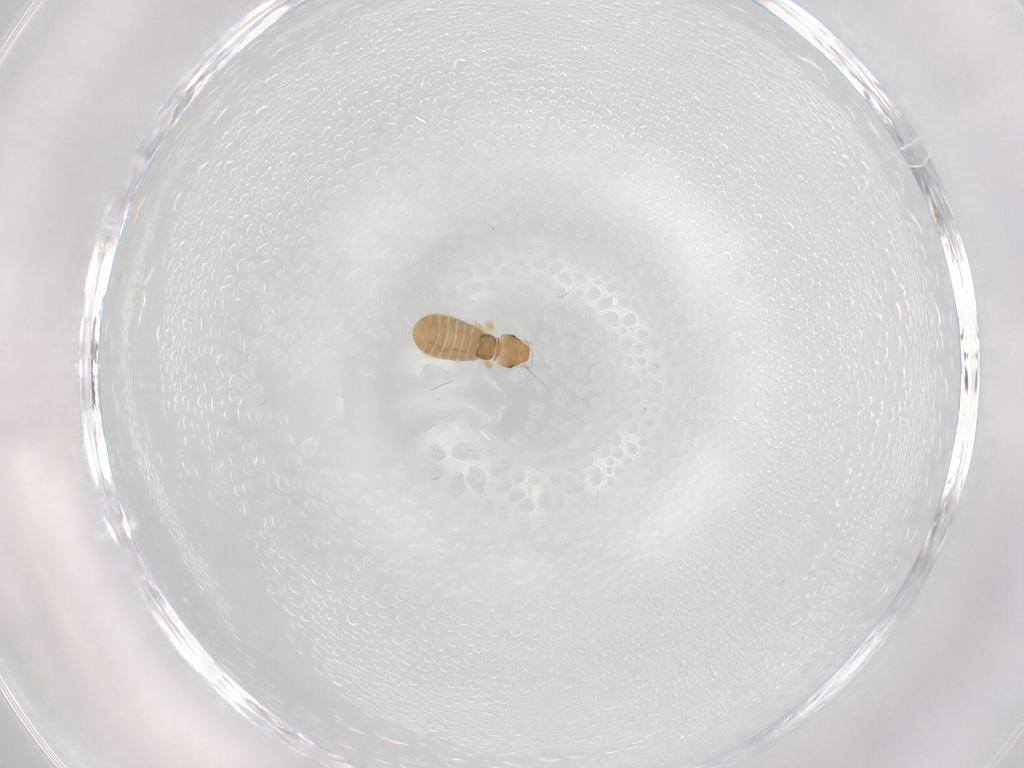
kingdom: Animalia
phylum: Arthropoda
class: Insecta
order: Psocodea
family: Liposcelididae
